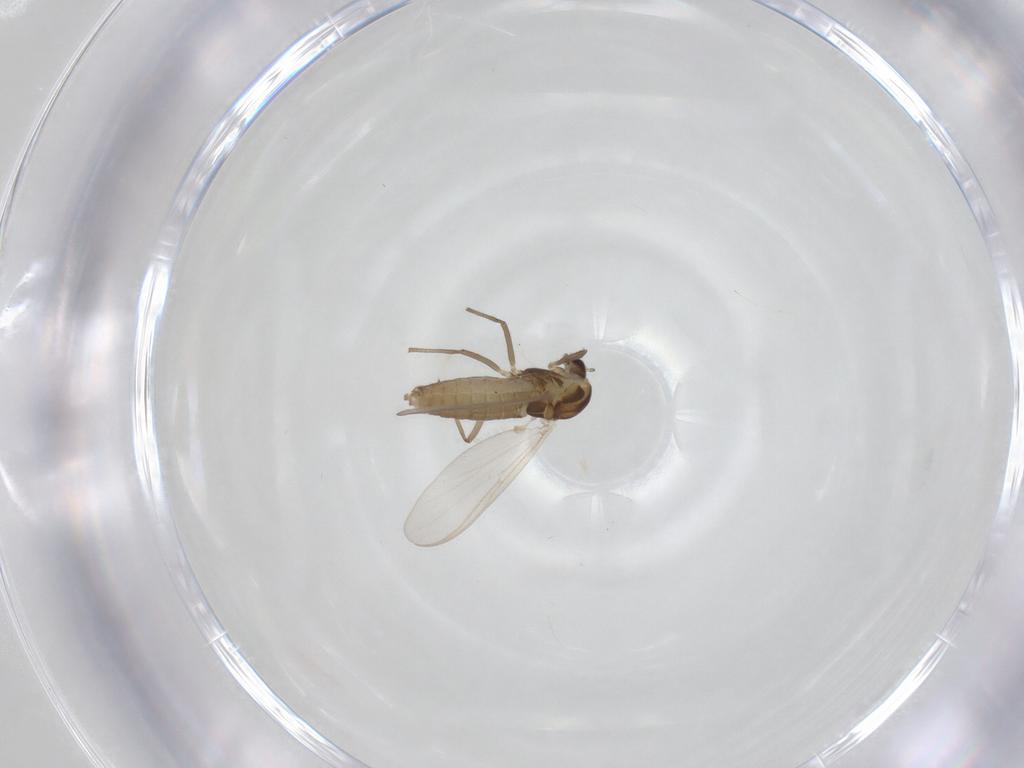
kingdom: Animalia
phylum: Arthropoda
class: Insecta
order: Diptera
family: Chironomidae
